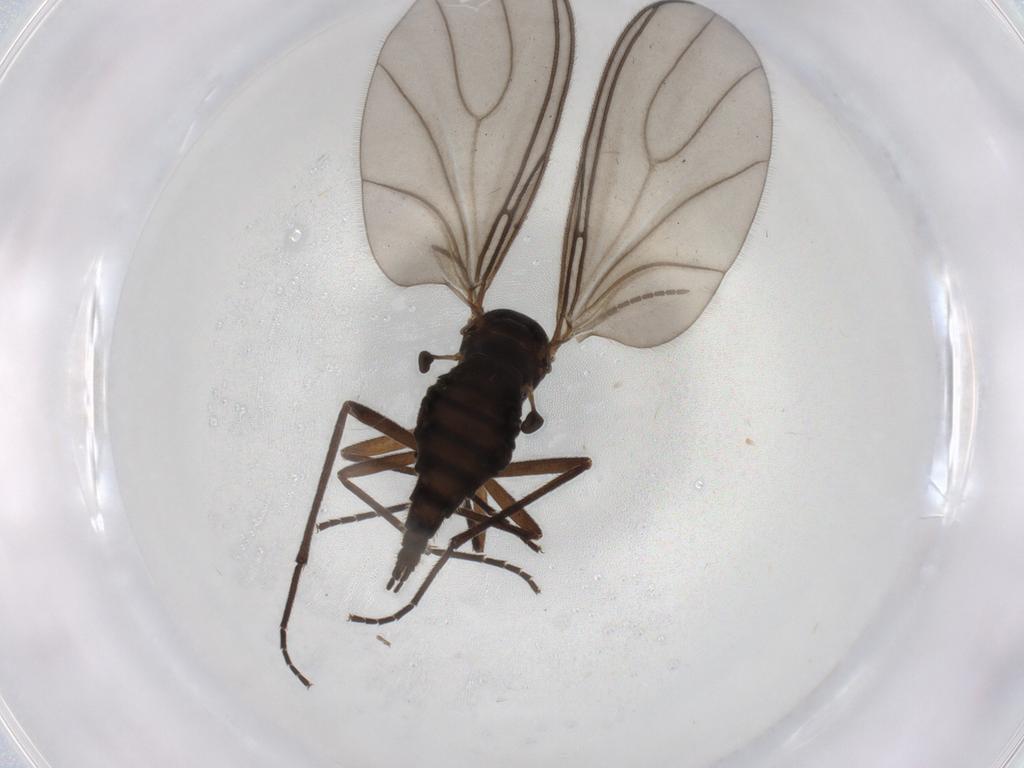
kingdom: Animalia
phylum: Arthropoda
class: Insecta
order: Diptera
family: Sciaridae
